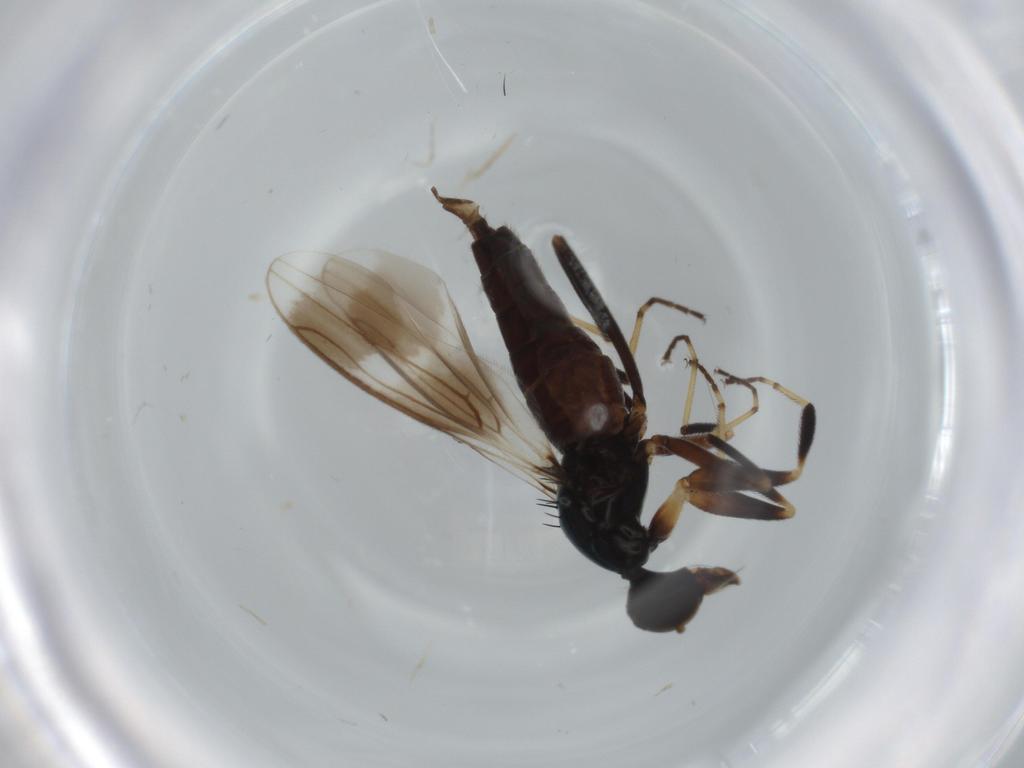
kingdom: Animalia
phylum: Arthropoda
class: Insecta
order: Diptera
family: Hybotidae
